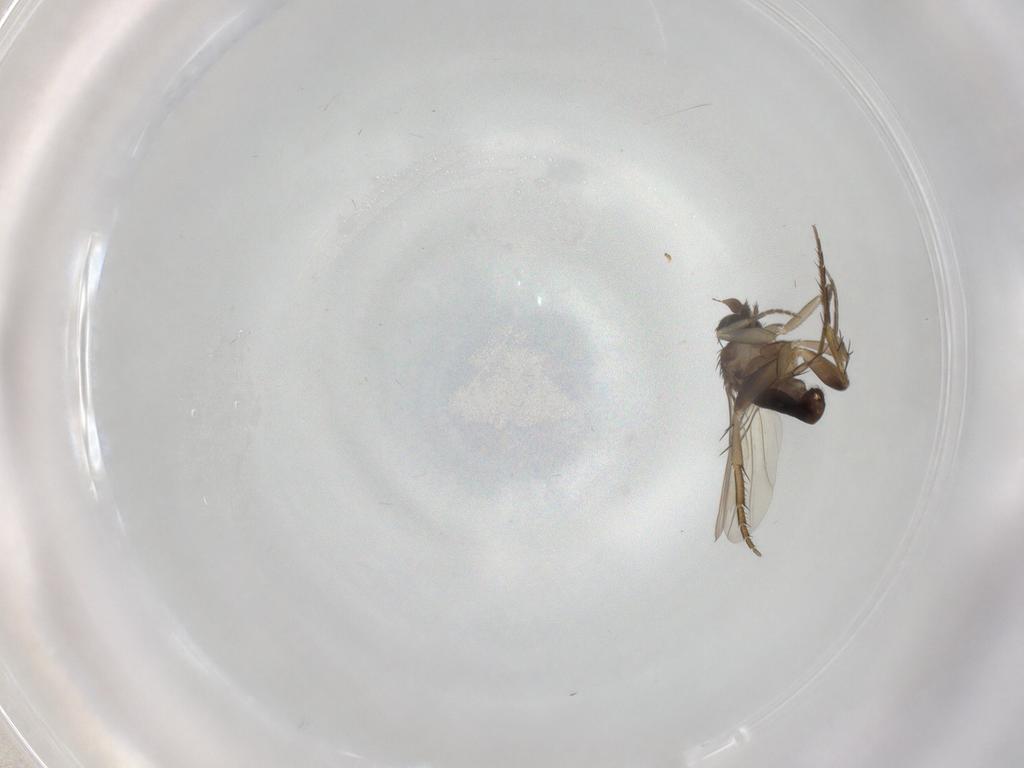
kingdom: Animalia
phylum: Arthropoda
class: Insecta
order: Diptera
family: Phoridae
